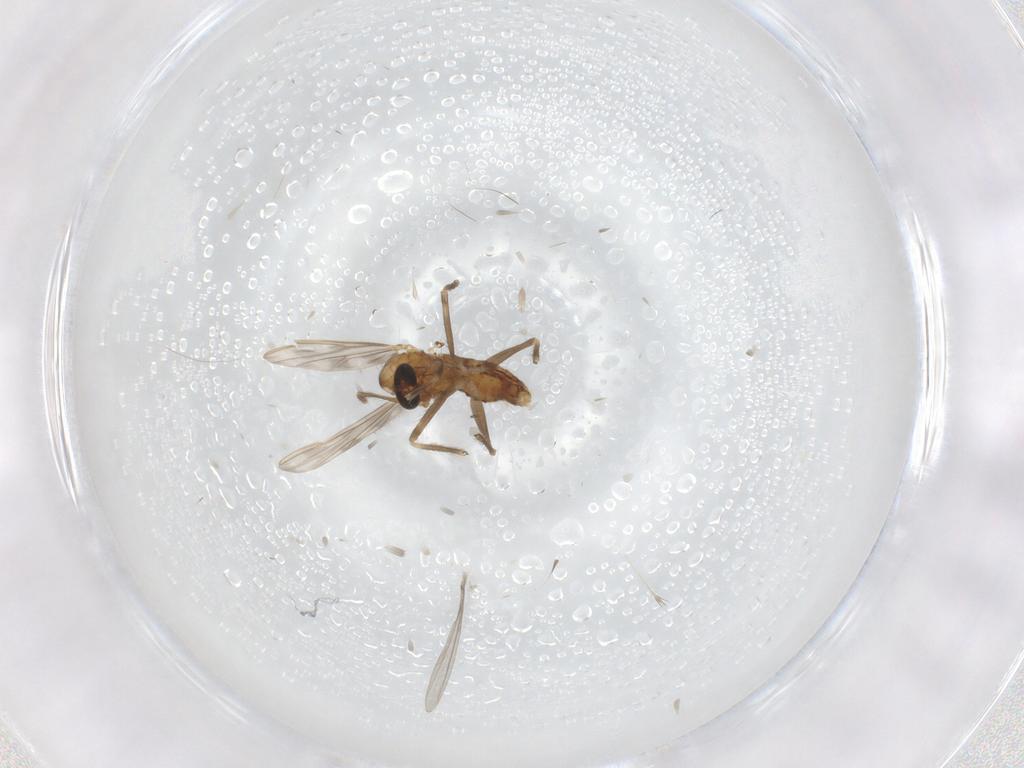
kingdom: Animalia
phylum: Arthropoda
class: Insecta
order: Diptera
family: Chironomidae
